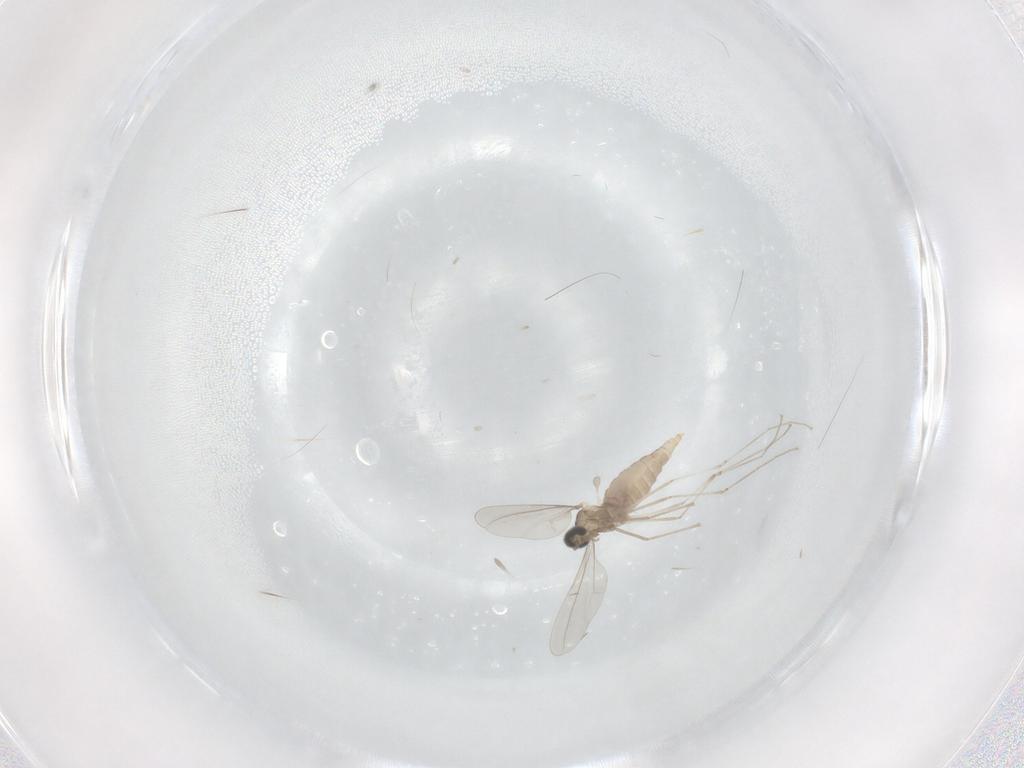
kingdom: Animalia
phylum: Arthropoda
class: Insecta
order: Diptera
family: Cecidomyiidae
